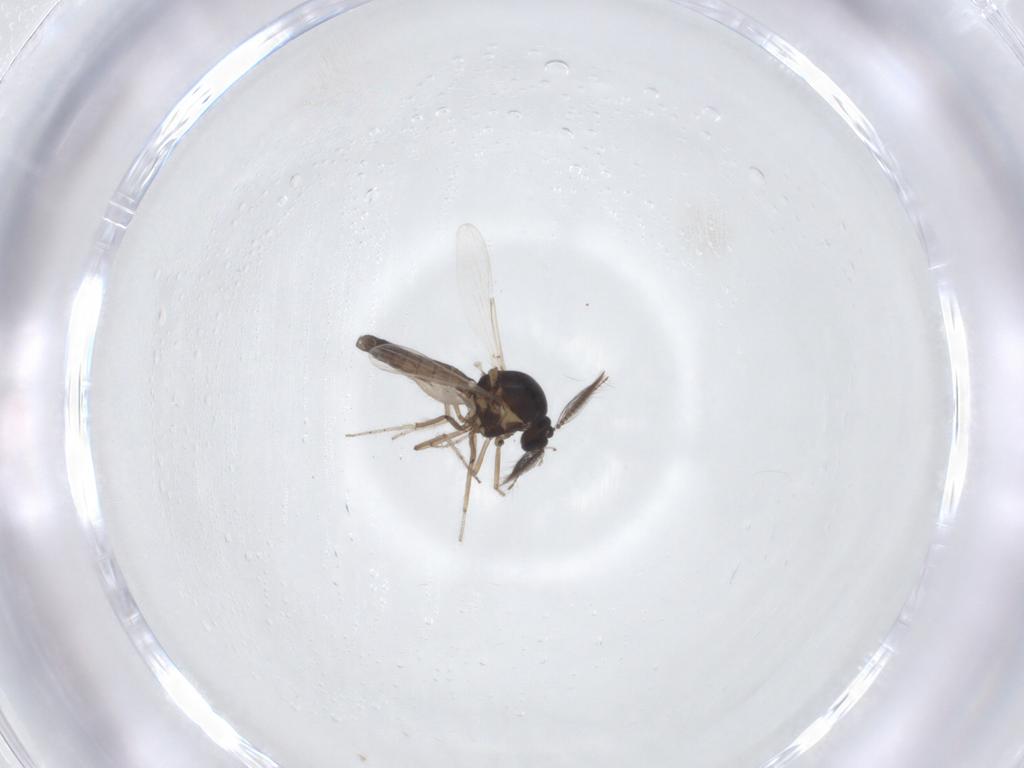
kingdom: Animalia
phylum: Arthropoda
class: Insecta
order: Diptera
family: Ceratopogonidae
